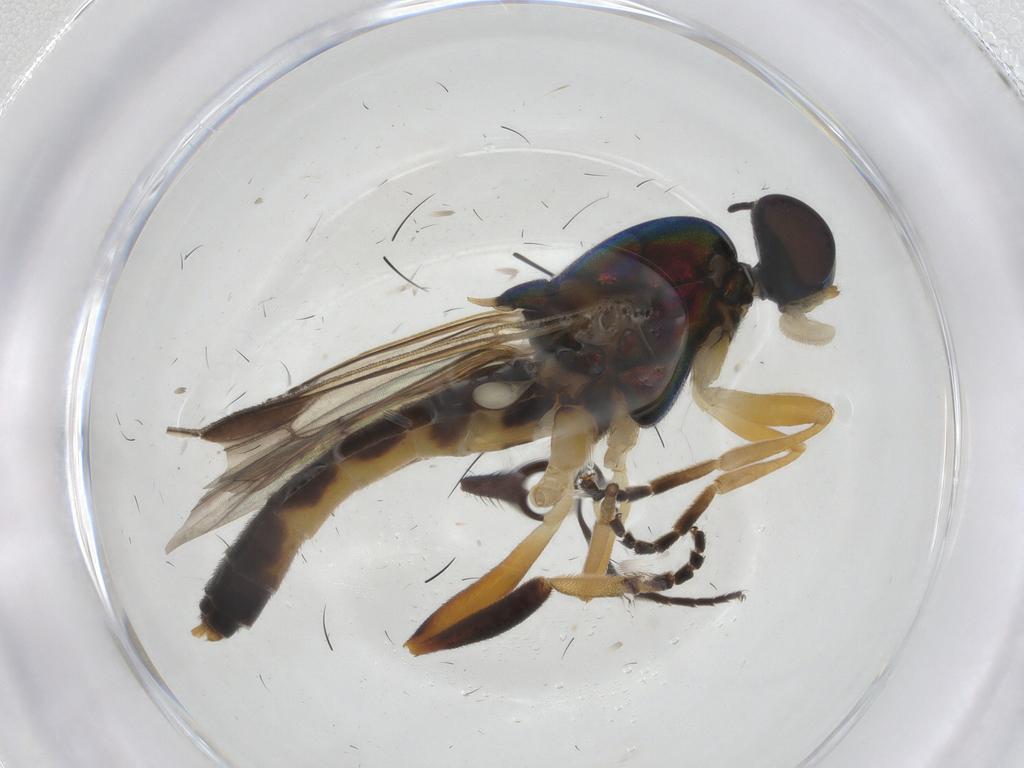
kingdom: Animalia
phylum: Arthropoda
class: Insecta
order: Diptera
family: Stratiomyidae
